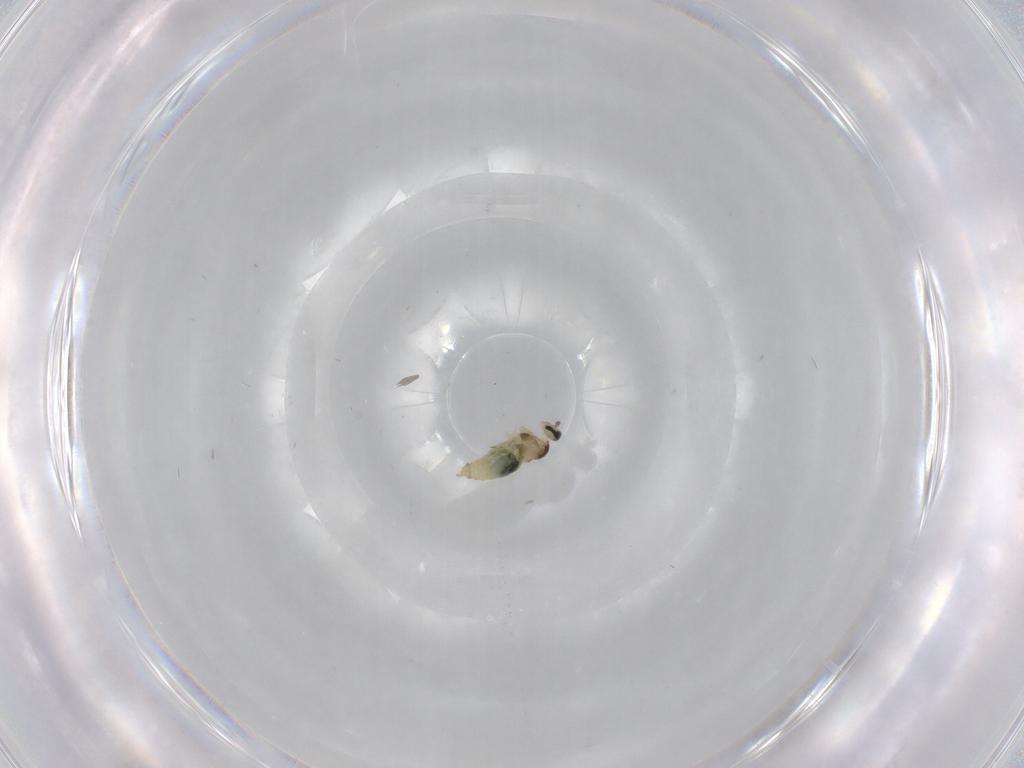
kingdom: Animalia
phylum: Arthropoda
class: Insecta
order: Diptera
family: Cecidomyiidae
